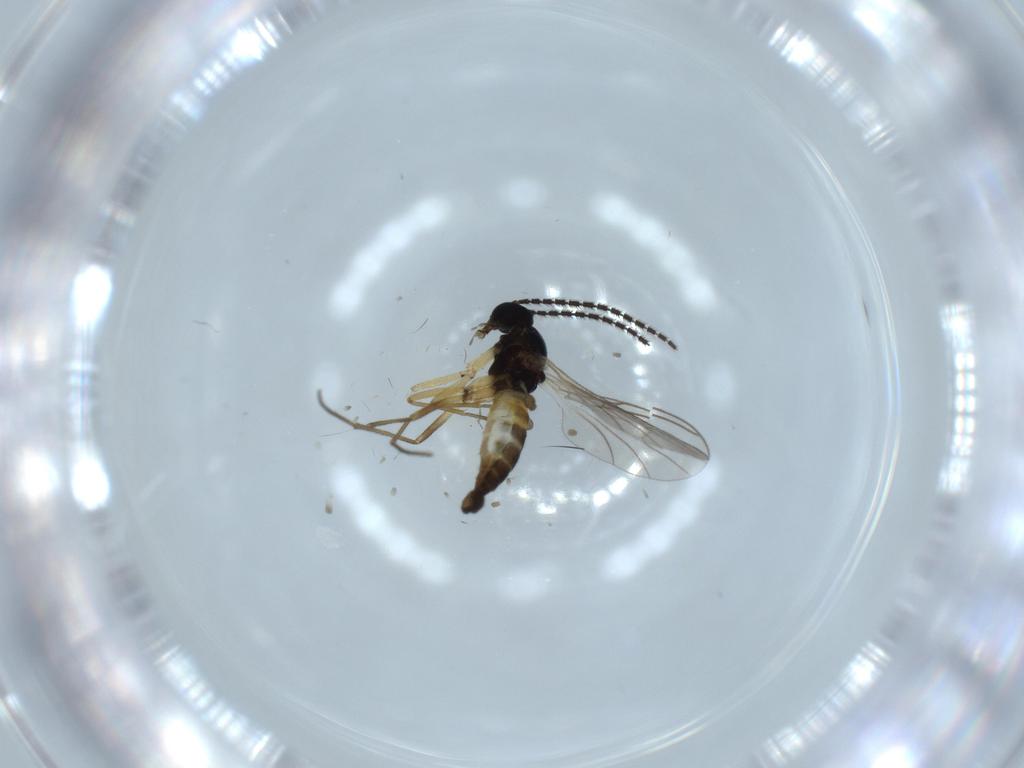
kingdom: Animalia
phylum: Arthropoda
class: Insecta
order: Diptera
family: Sciaridae
